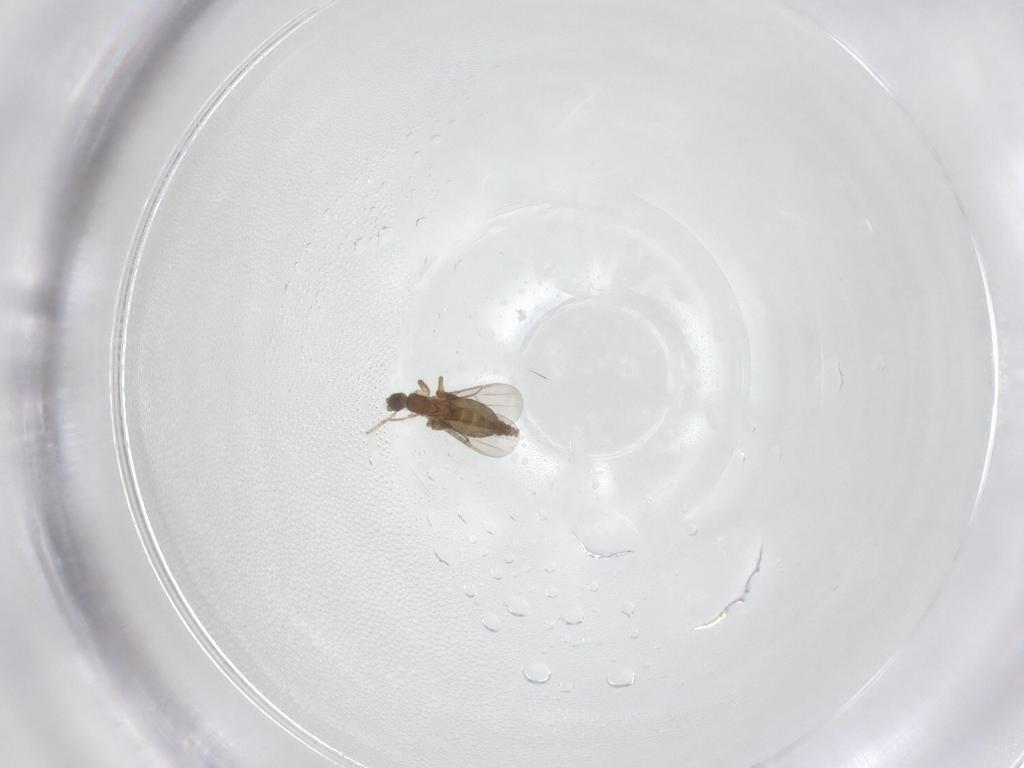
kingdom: Animalia
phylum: Arthropoda
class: Insecta
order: Diptera
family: Phoridae
